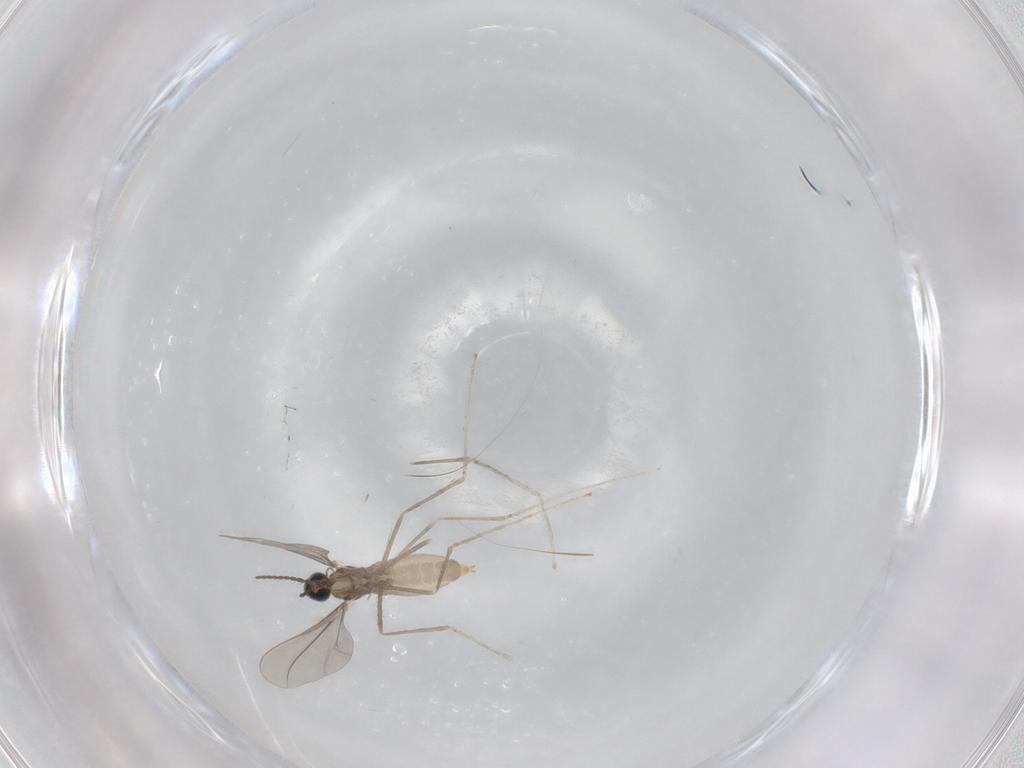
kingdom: Animalia
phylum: Arthropoda
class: Insecta
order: Diptera
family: Cecidomyiidae
